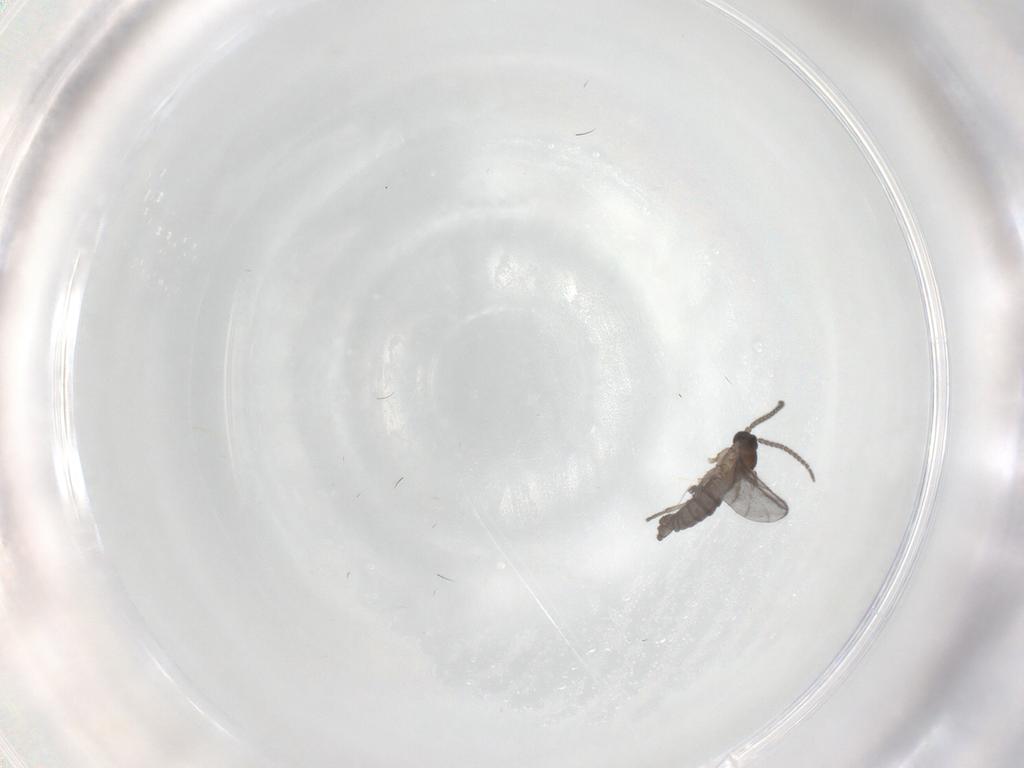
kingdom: Animalia
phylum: Arthropoda
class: Insecta
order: Diptera
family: Sciaridae
